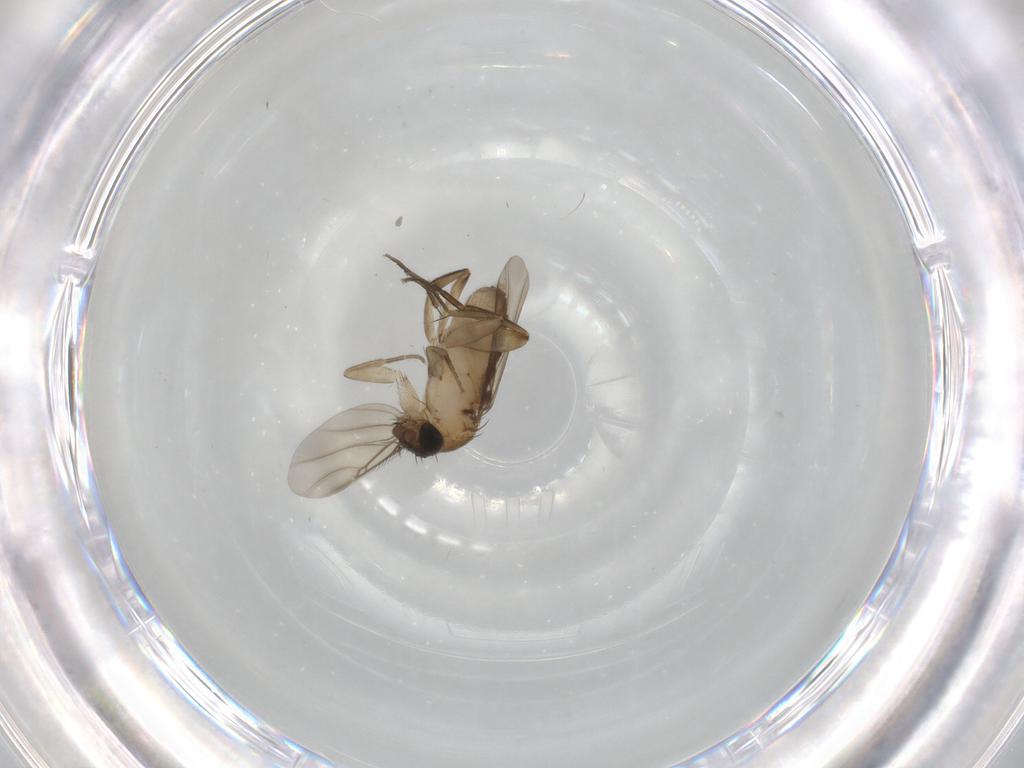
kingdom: Animalia
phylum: Arthropoda
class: Insecta
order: Diptera
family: Phoridae
